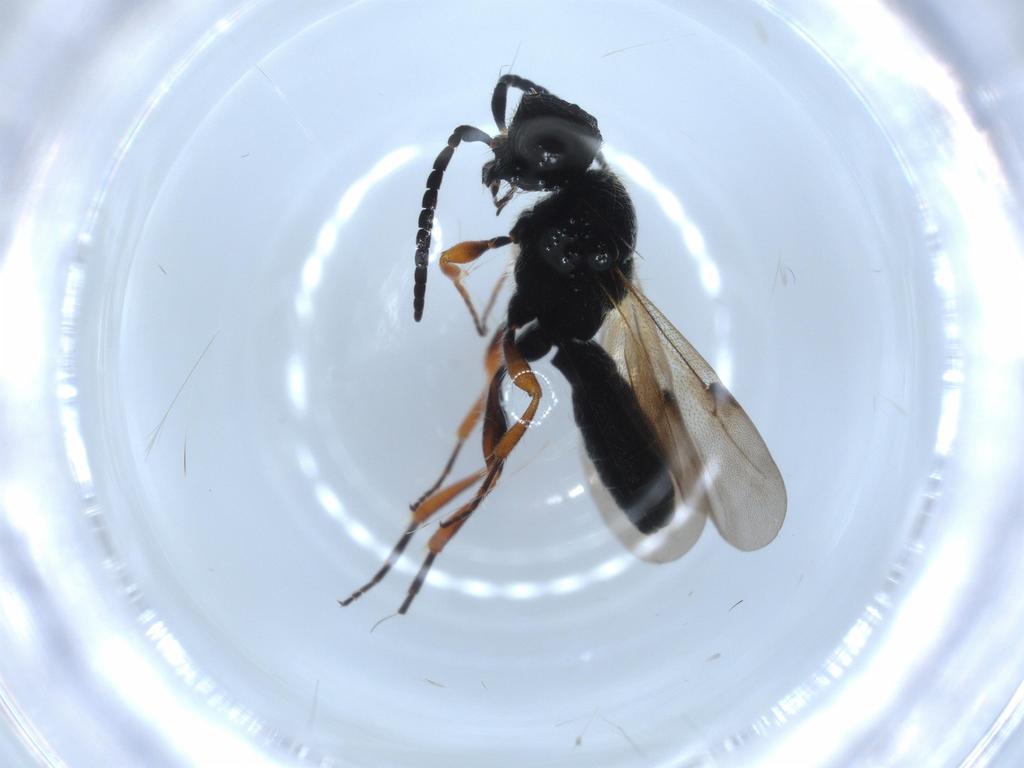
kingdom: Animalia
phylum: Arthropoda
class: Insecta
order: Hymenoptera
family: Scelionidae
